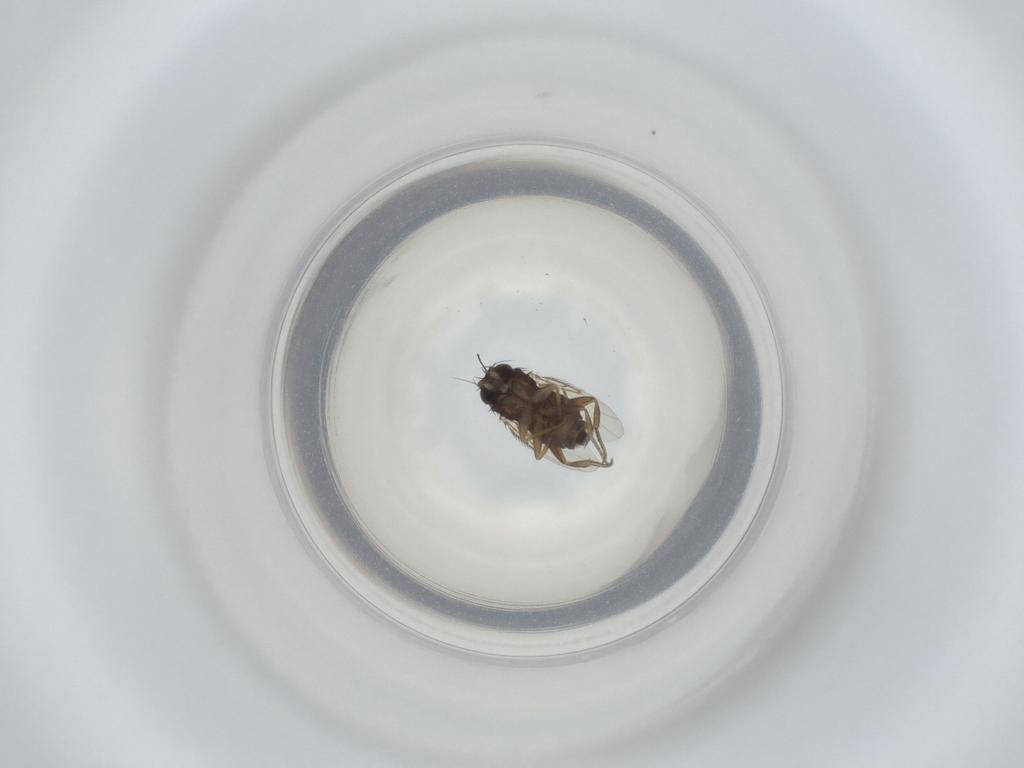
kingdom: Animalia
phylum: Arthropoda
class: Insecta
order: Diptera
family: Phoridae
